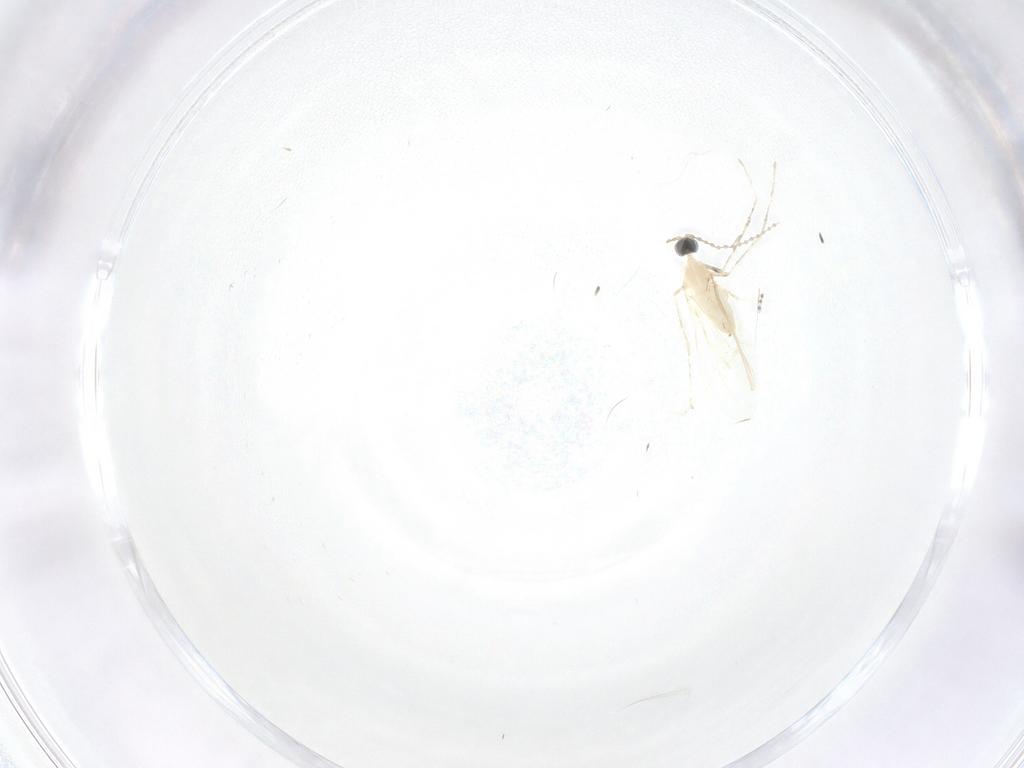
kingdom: Animalia
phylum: Arthropoda
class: Insecta
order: Diptera
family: Cecidomyiidae
